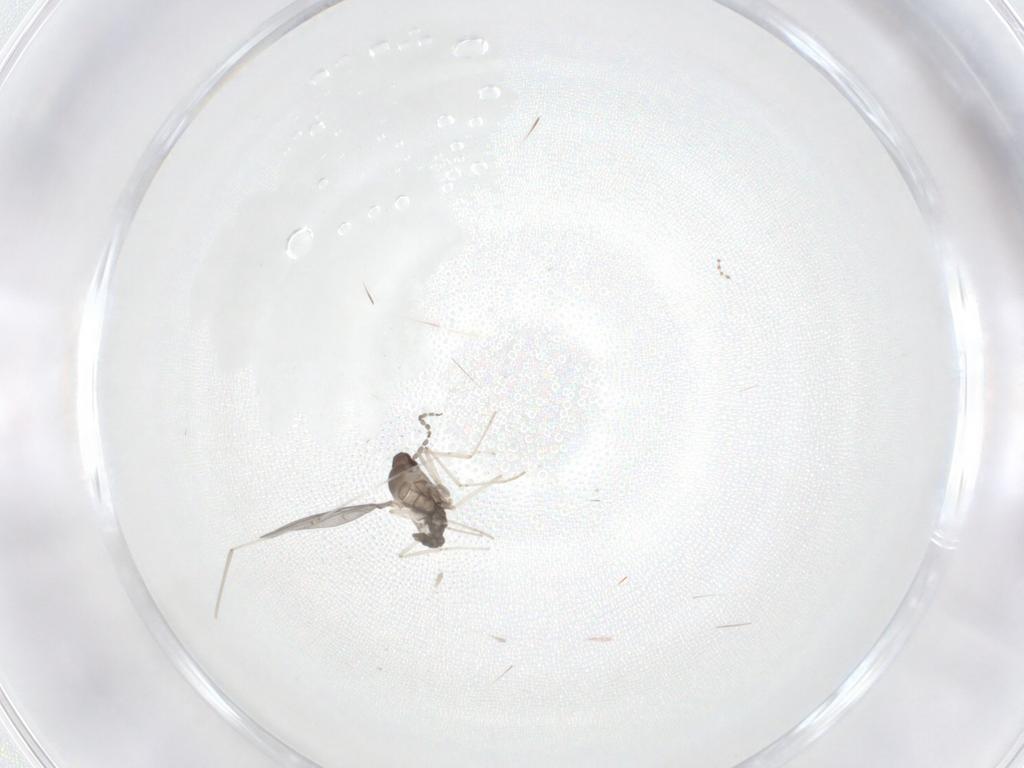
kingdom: Animalia
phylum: Arthropoda
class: Insecta
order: Diptera
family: Cecidomyiidae
